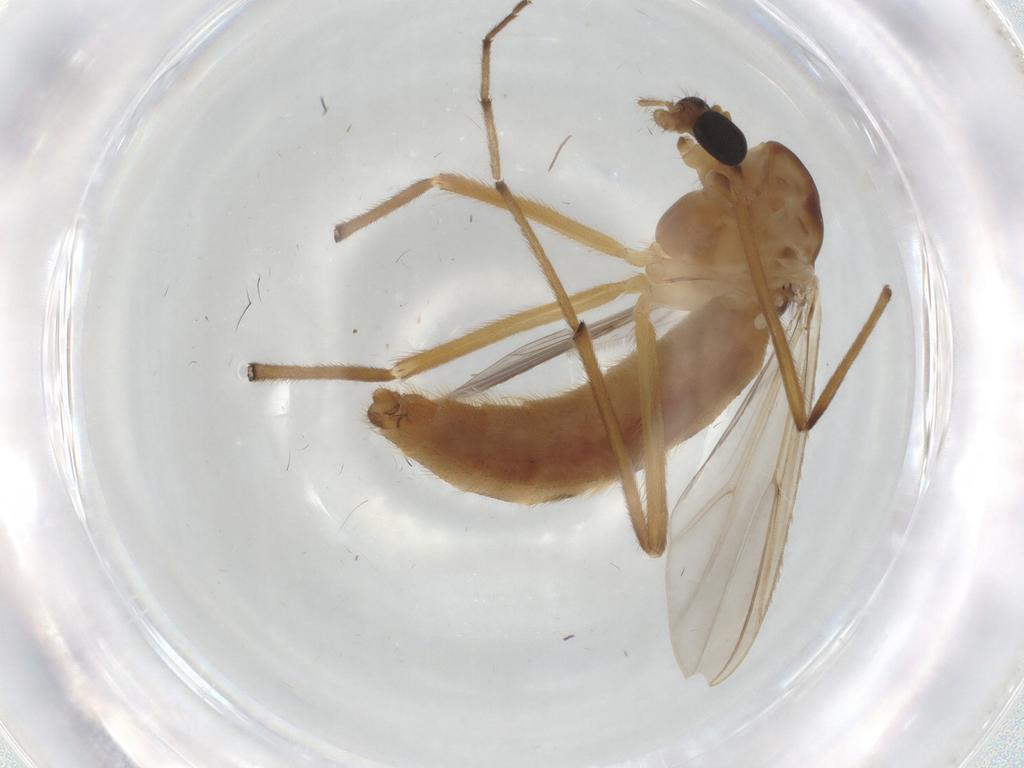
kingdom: Animalia
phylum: Arthropoda
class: Insecta
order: Diptera
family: Chironomidae
